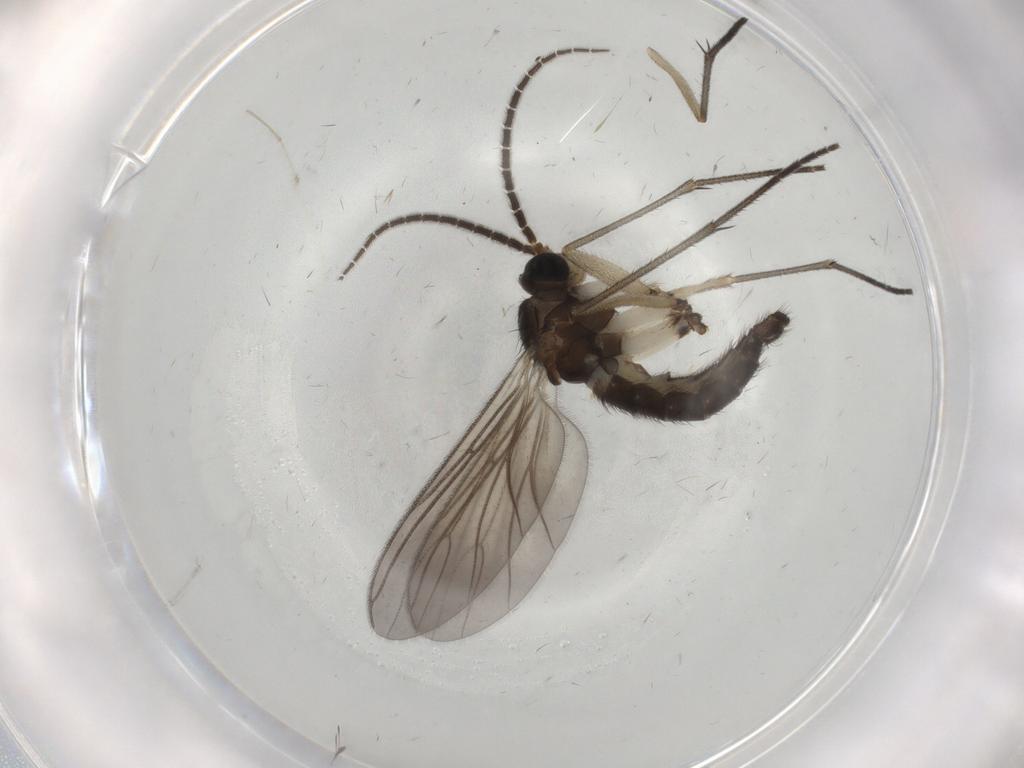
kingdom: Animalia
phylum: Arthropoda
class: Insecta
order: Diptera
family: Sciaridae
